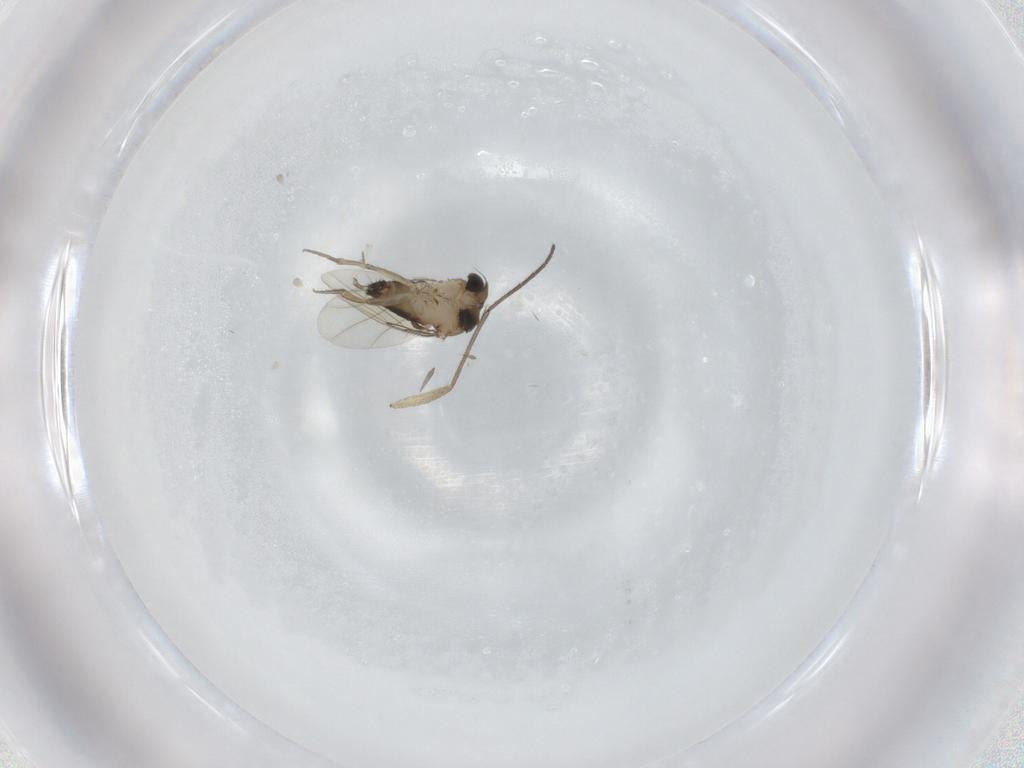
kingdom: Animalia
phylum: Arthropoda
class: Insecta
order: Diptera
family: Phoridae
